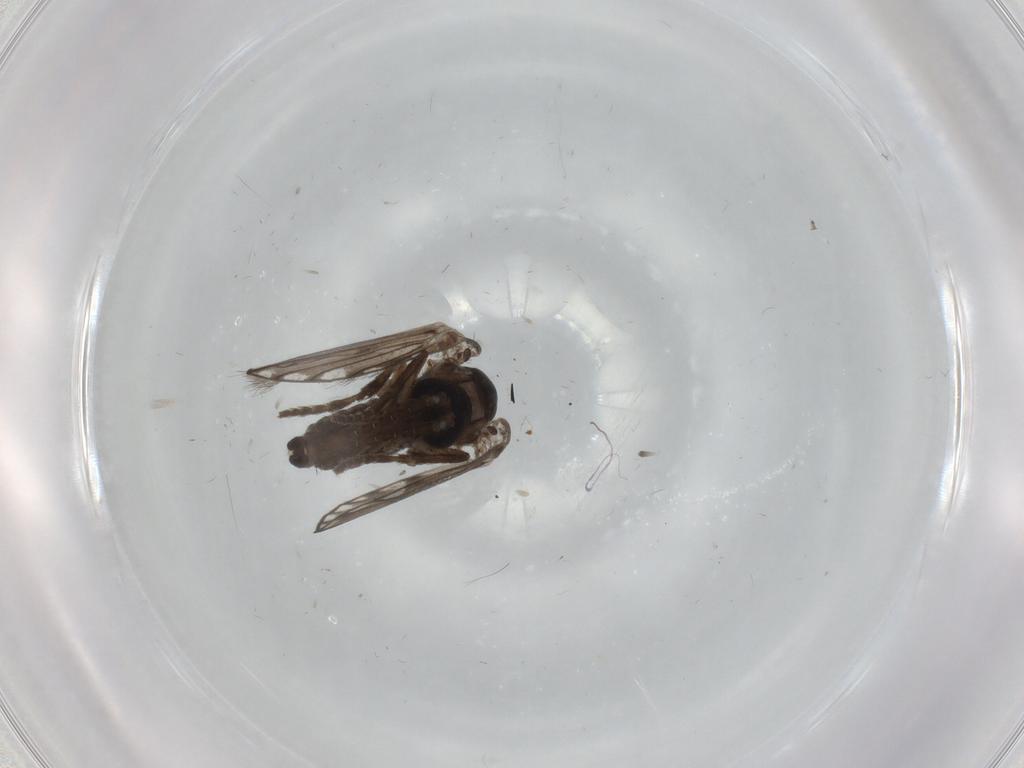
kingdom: Animalia
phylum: Arthropoda
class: Insecta
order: Diptera
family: Psychodidae
